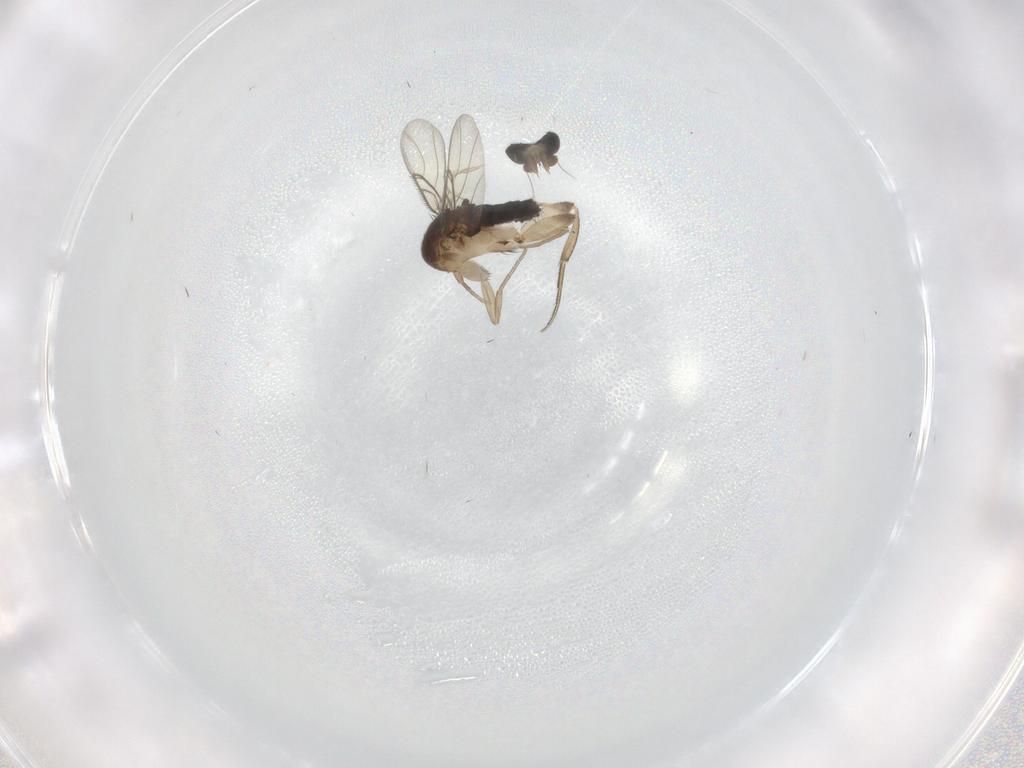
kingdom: Animalia
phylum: Arthropoda
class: Insecta
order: Diptera
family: Phoridae
